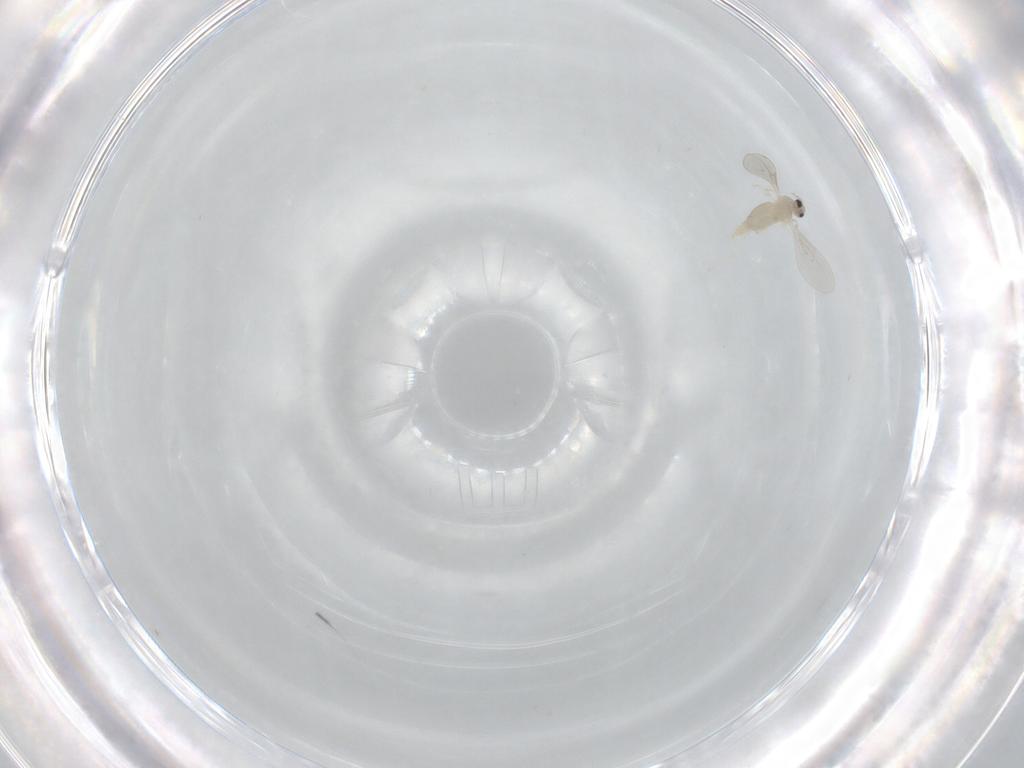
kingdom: Animalia
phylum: Arthropoda
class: Insecta
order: Diptera
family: Cecidomyiidae
